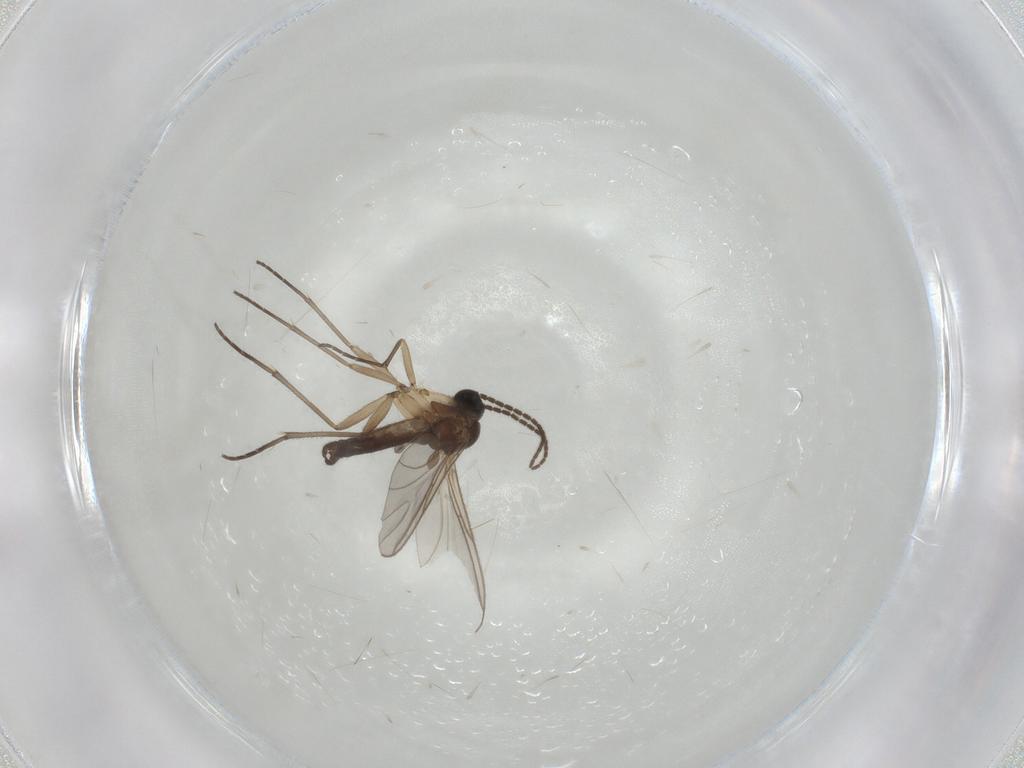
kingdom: Animalia
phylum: Arthropoda
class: Insecta
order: Diptera
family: Sciaridae
